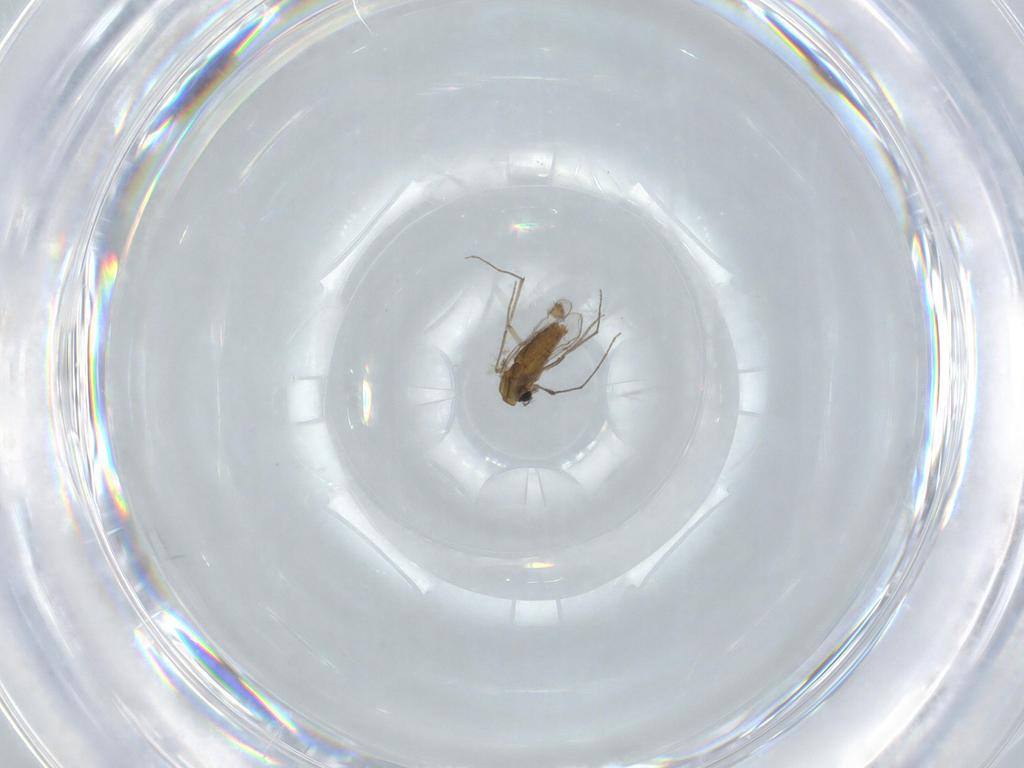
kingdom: Animalia
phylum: Arthropoda
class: Insecta
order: Diptera
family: Chironomidae
